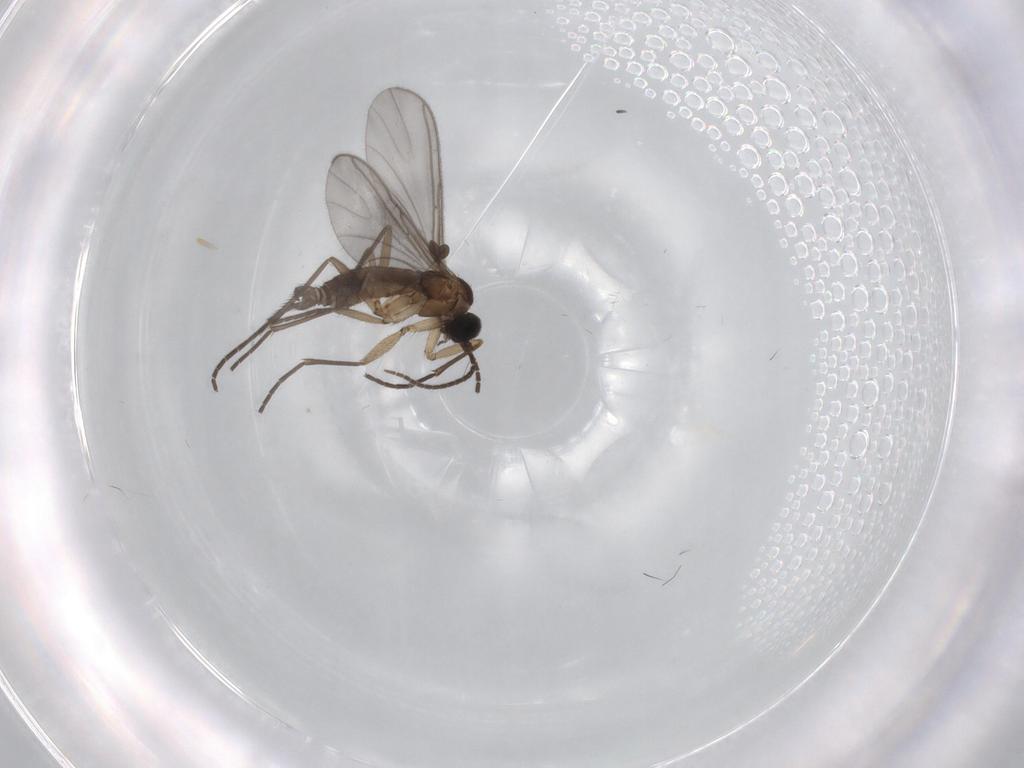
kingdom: Animalia
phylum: Arthropoda
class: Insecta
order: Diptera
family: Sciaridae
